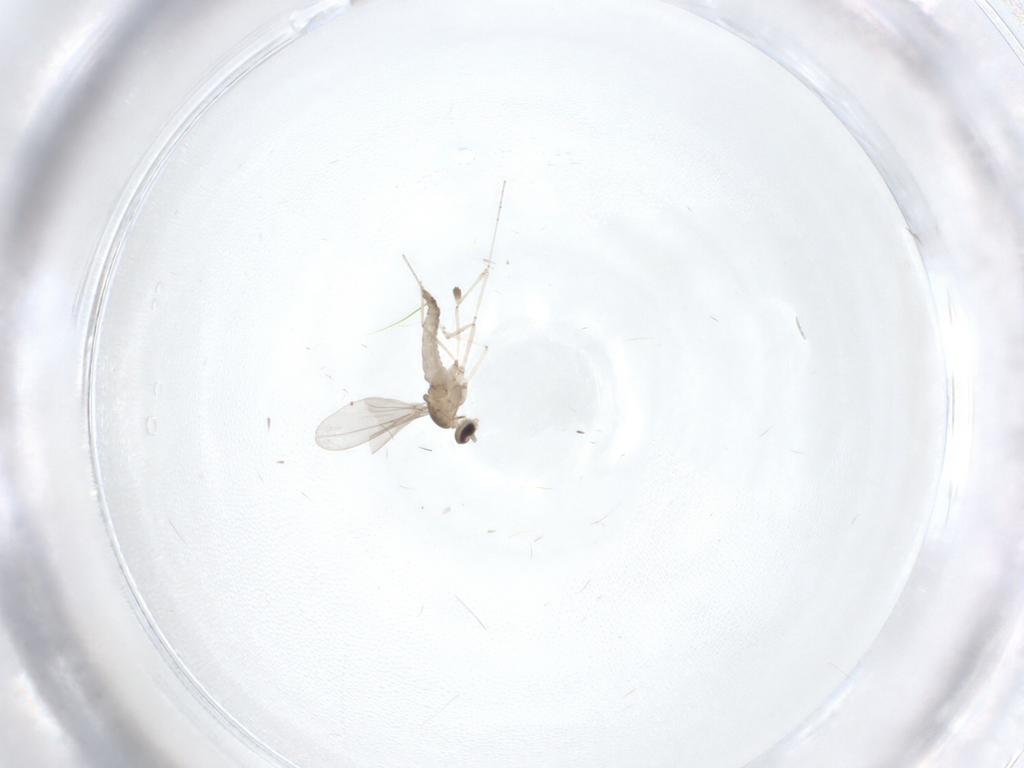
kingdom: Animalia
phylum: Arthropoda
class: Insecta
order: Diptera
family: Cecidomyiidae
